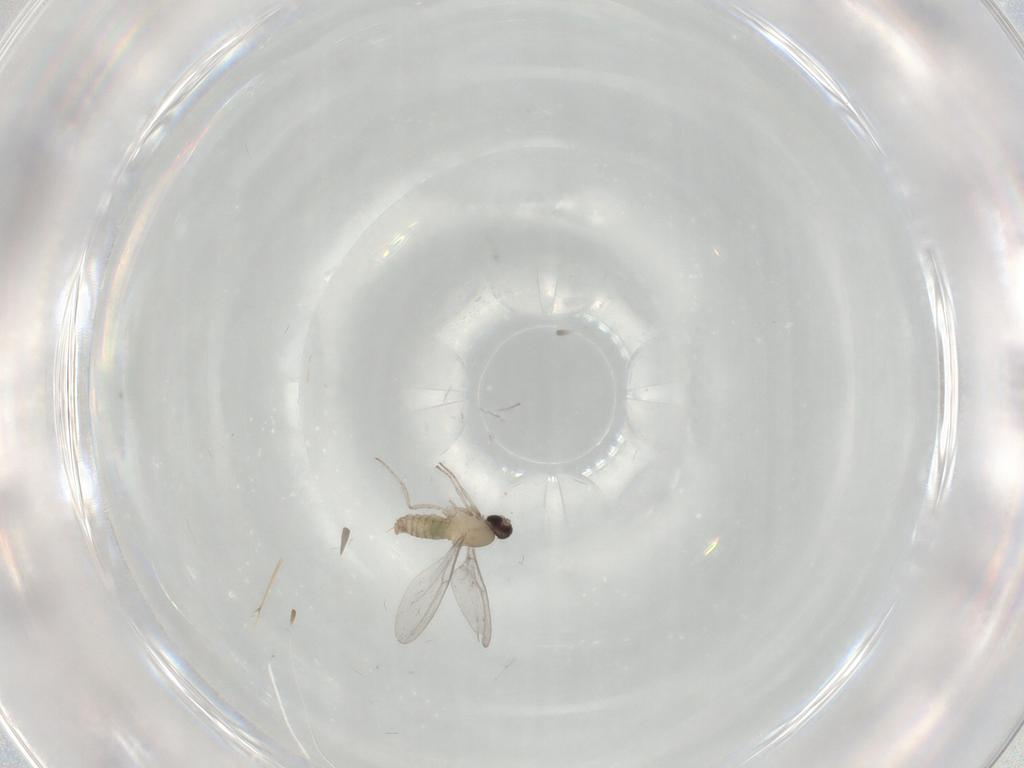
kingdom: Animalia
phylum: Arthropoda
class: Insecta
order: Diptera
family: Cecidomyiidae
